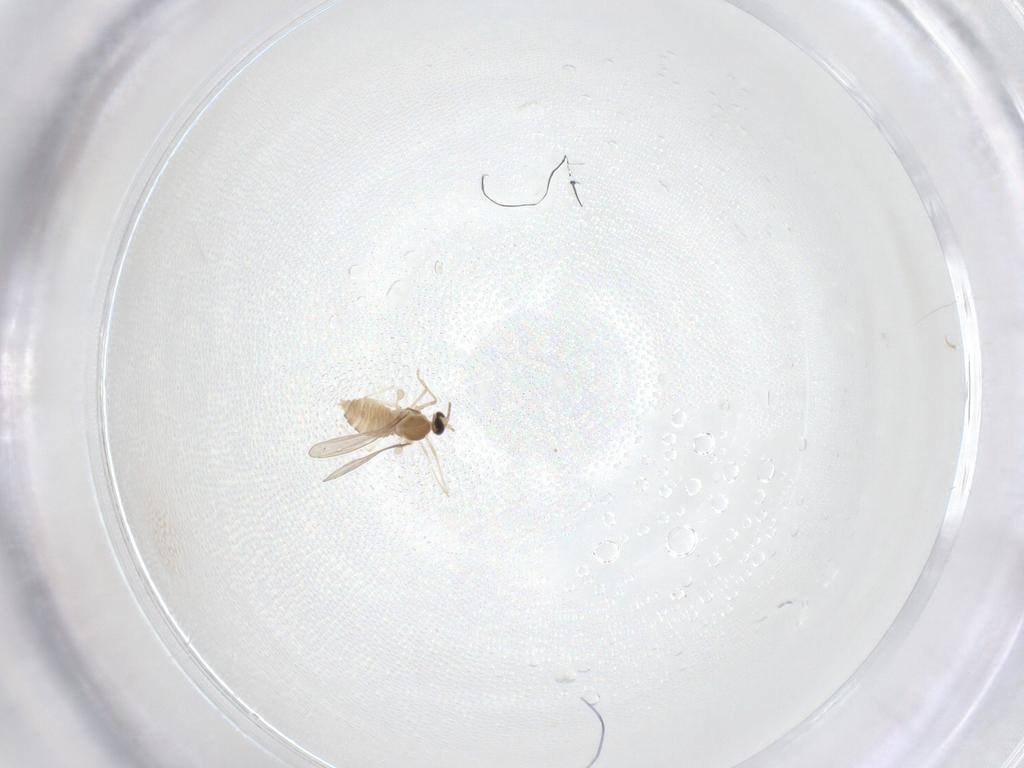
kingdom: Animalia
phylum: Arthropoda
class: Insecta
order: Diptera
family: Cecidomyiidae
